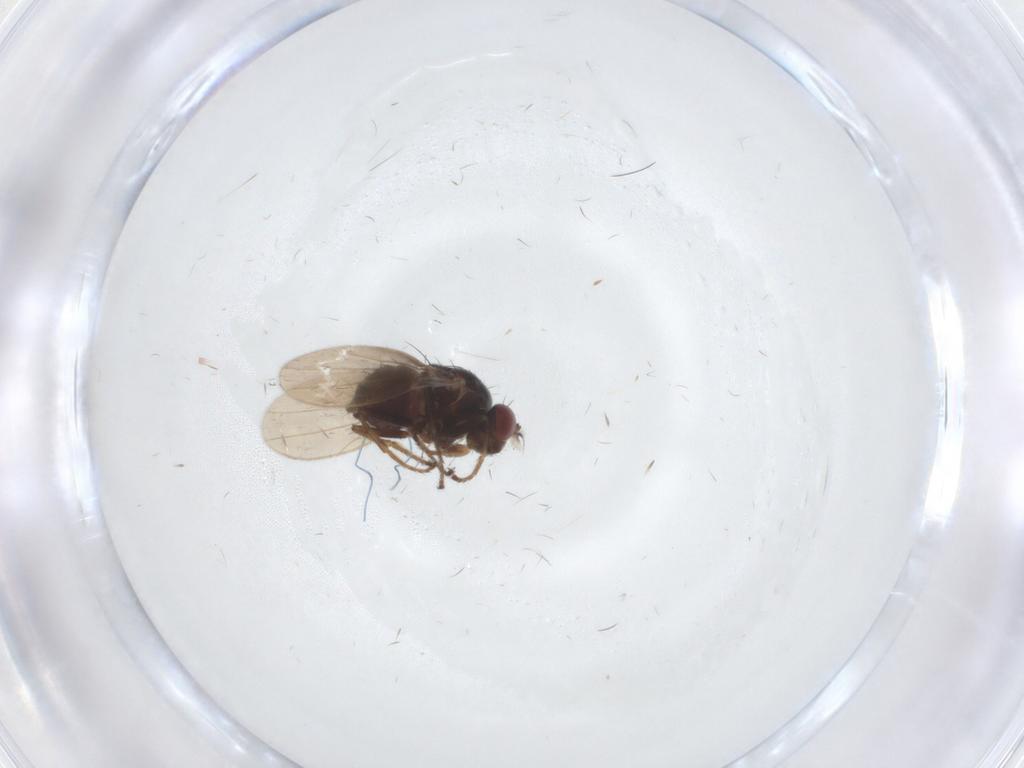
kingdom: Animalia
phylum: Arthropoda
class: Insecta
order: Diptera
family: Ephydridae
